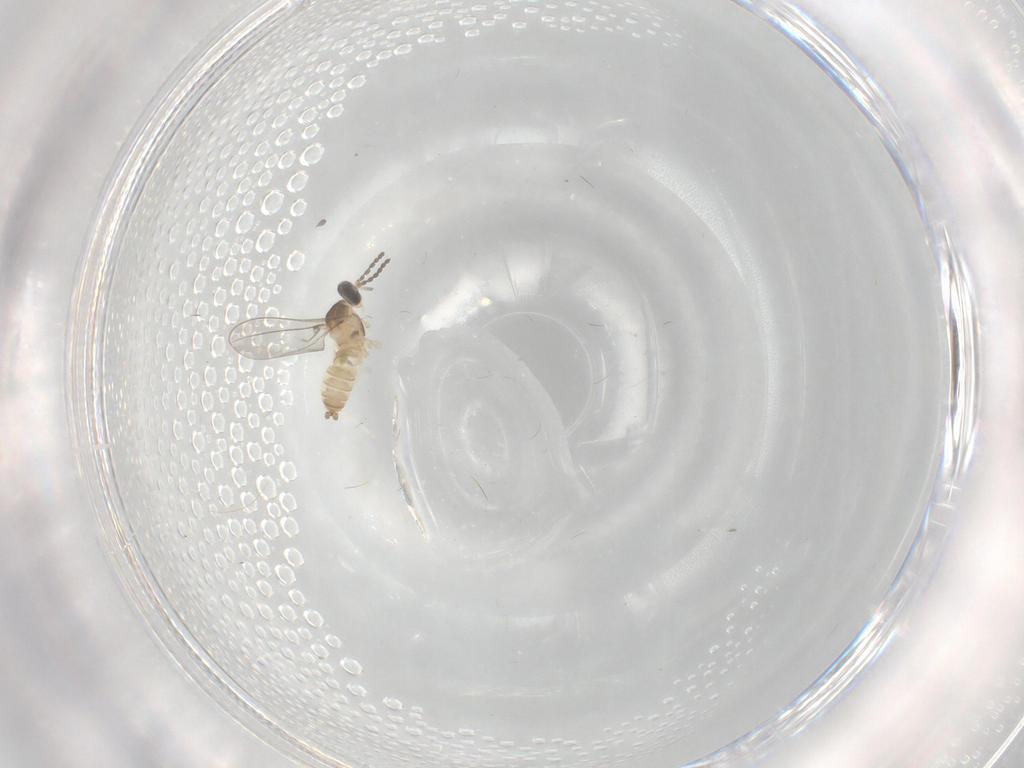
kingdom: Animalia
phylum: Arthropoda
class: Insecta
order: Diptera
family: Cecidomyiidae
